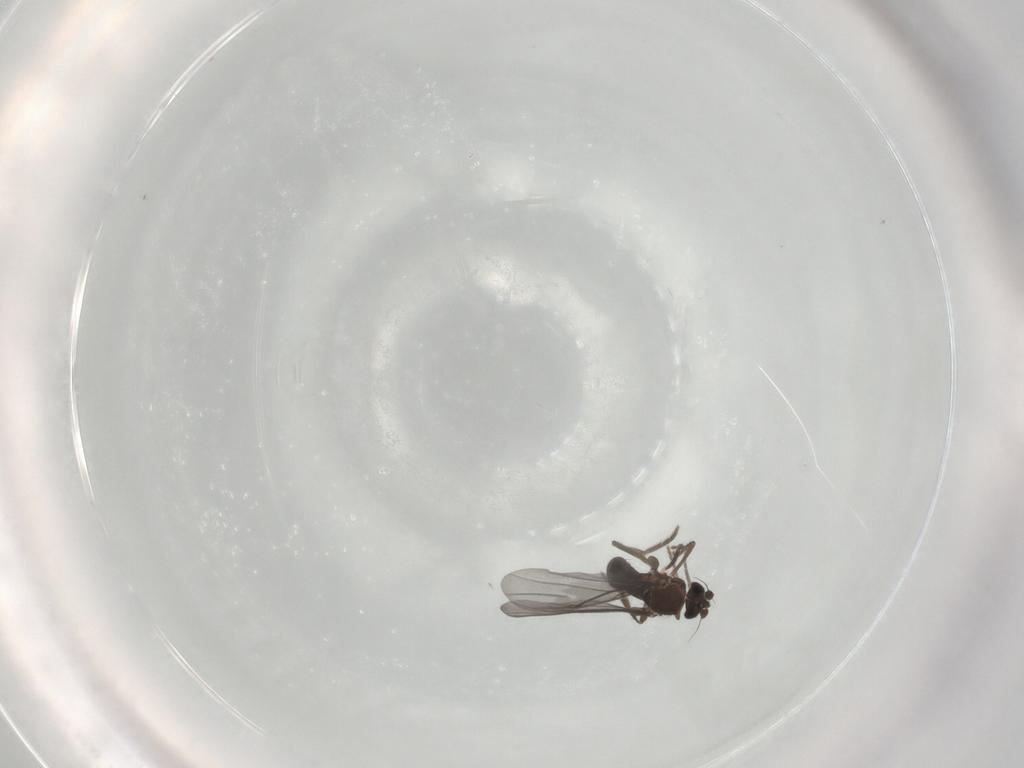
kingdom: Animalia
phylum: Arthropoda
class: Insecta
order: Diptera
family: Phoridae
